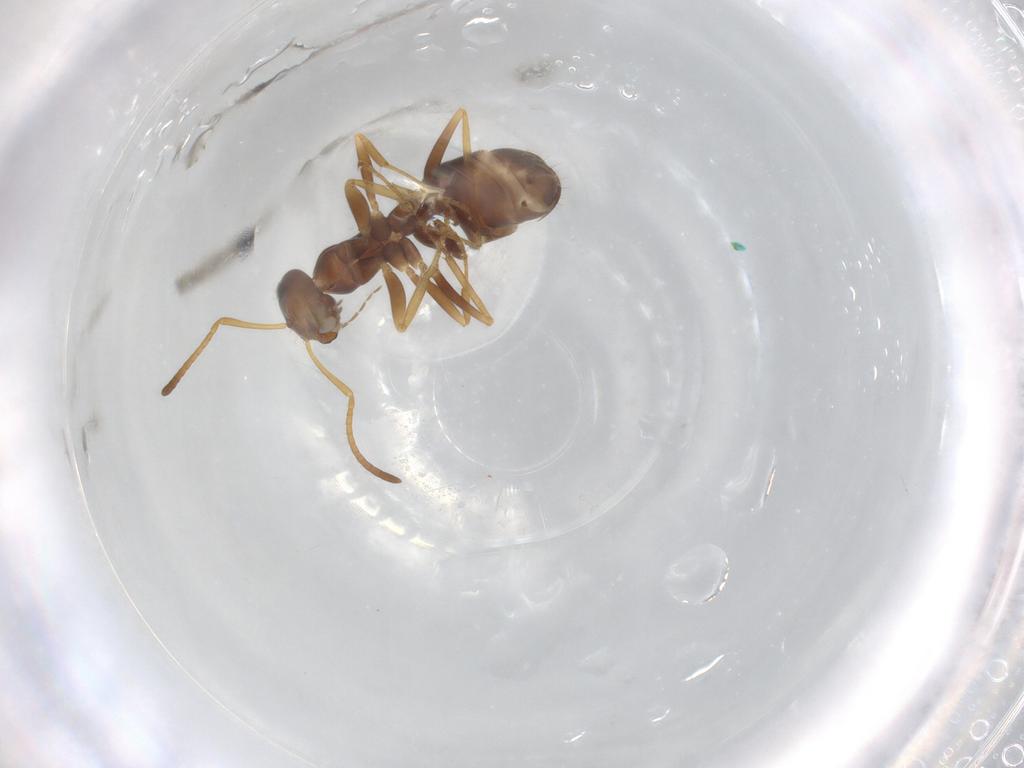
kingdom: Animalia
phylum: Arthropoda
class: Insecta
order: Hymenoptera
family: Formicidae
